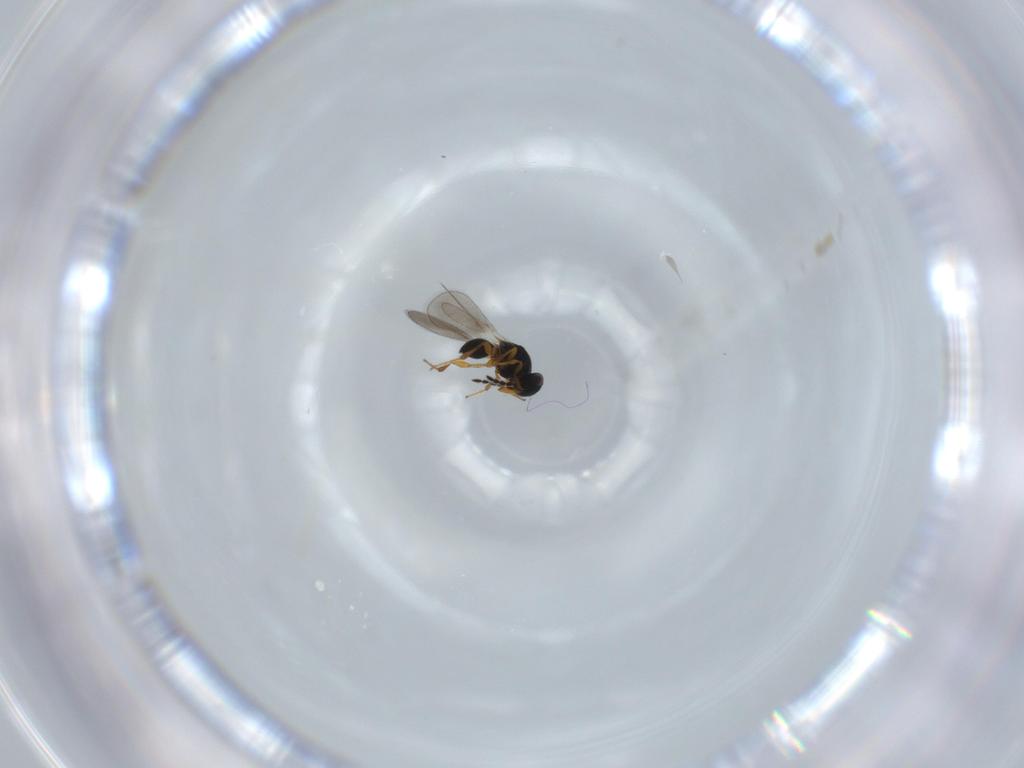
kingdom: Animalia
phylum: Arthropoda
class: Insecta
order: Hymenoptera
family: Platygastridae
